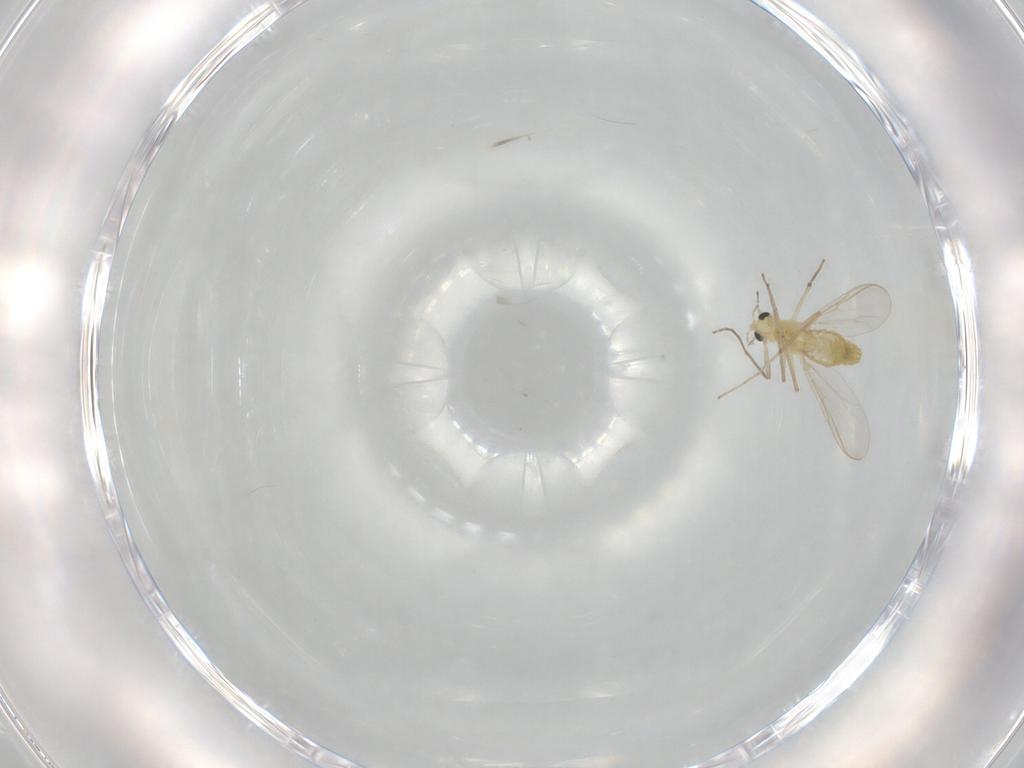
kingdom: Animalia
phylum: Arthropoda
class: Insecta
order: Diptera
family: Chironomidae
